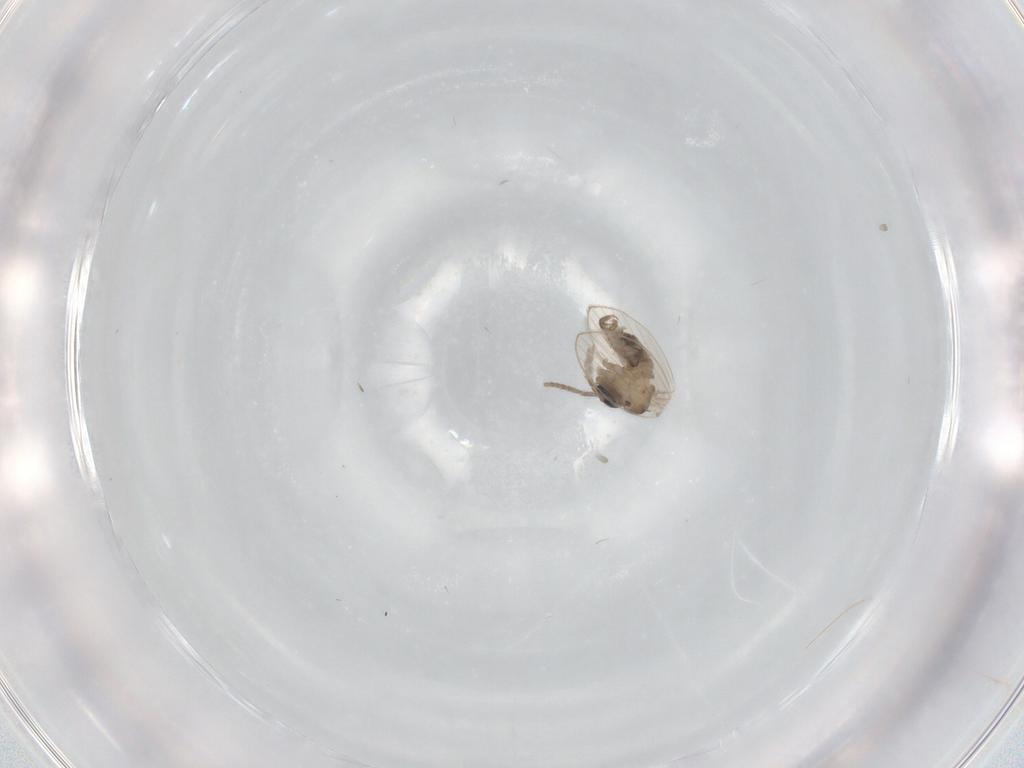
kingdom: Animalia
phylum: Arthropoda
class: Insecta
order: Diptera
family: Psychodidae
